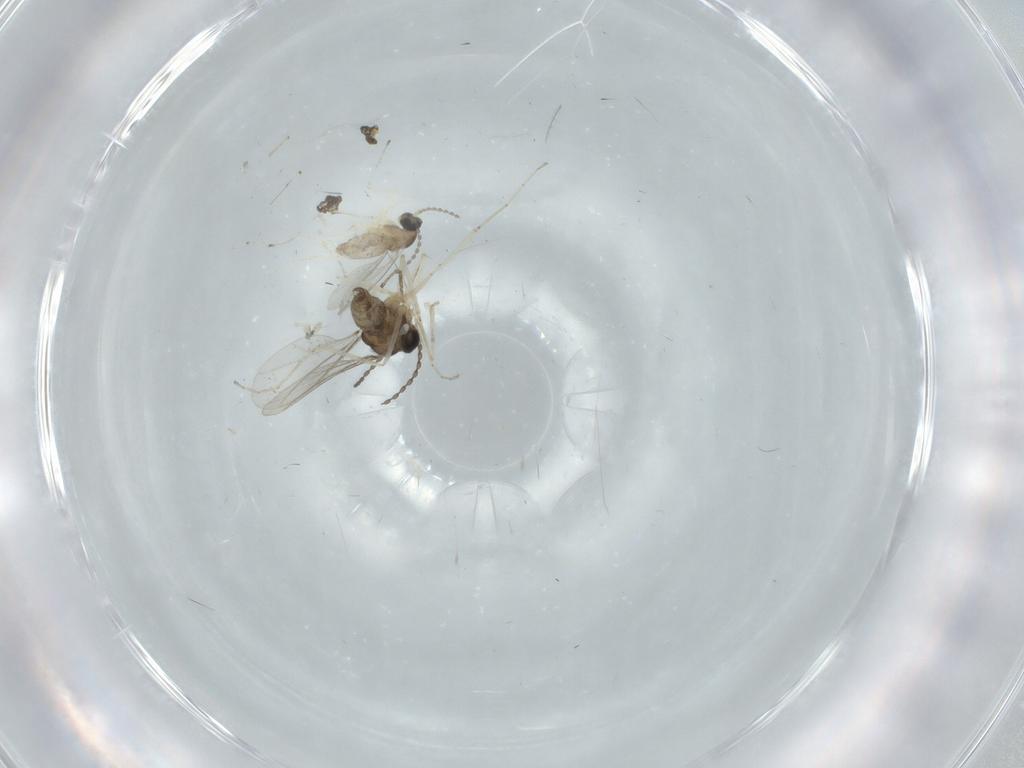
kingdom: Animalia
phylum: Arthropoda
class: Insecta
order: Diptera
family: Cecidomyiidae
